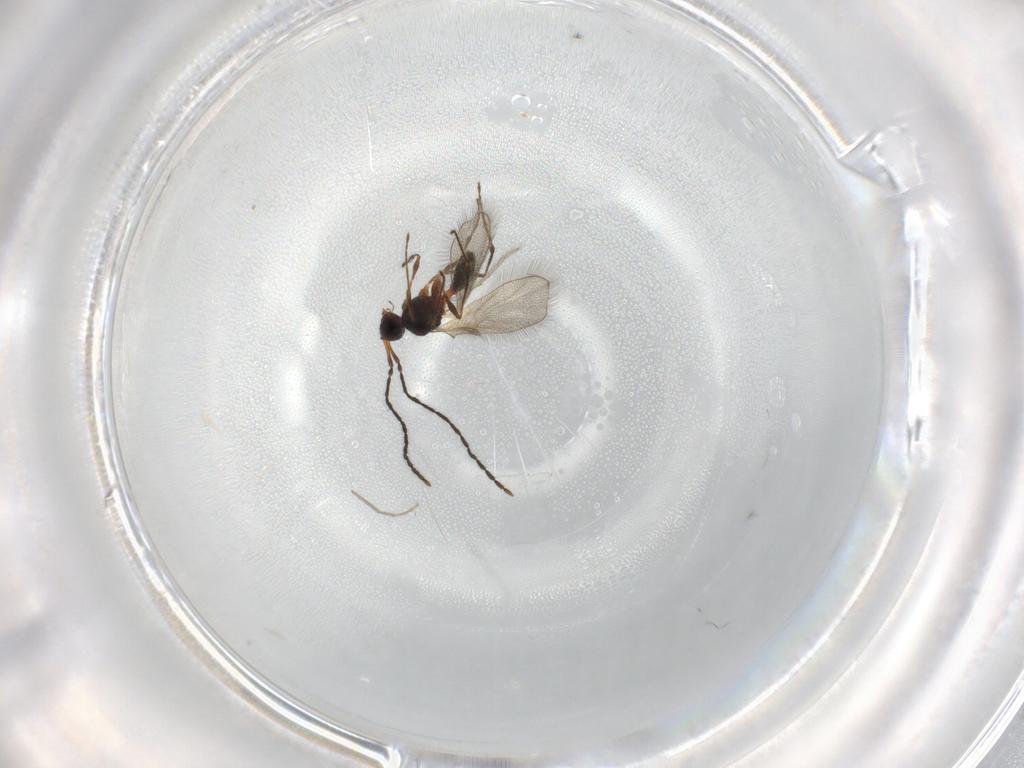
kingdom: Animalia
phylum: Arthropoda
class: Insecta
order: Hymenoptera
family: Diapriidae
